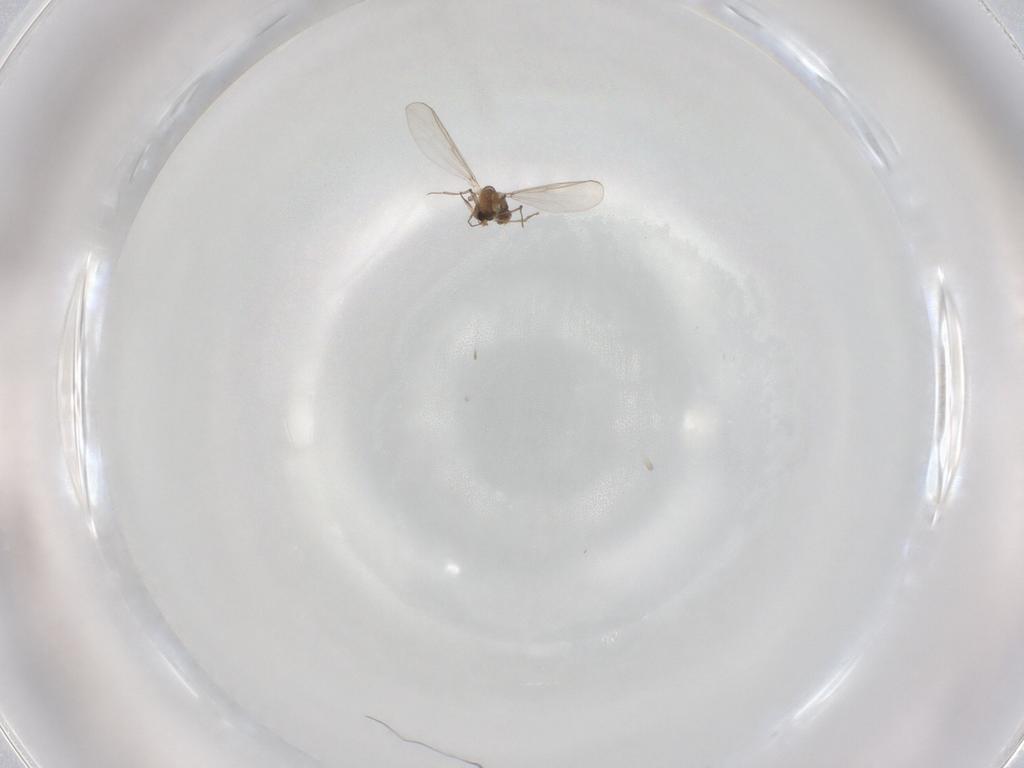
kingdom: Animalia
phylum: Arthropoda
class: Insecta
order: Diptera
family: Psychodidae
